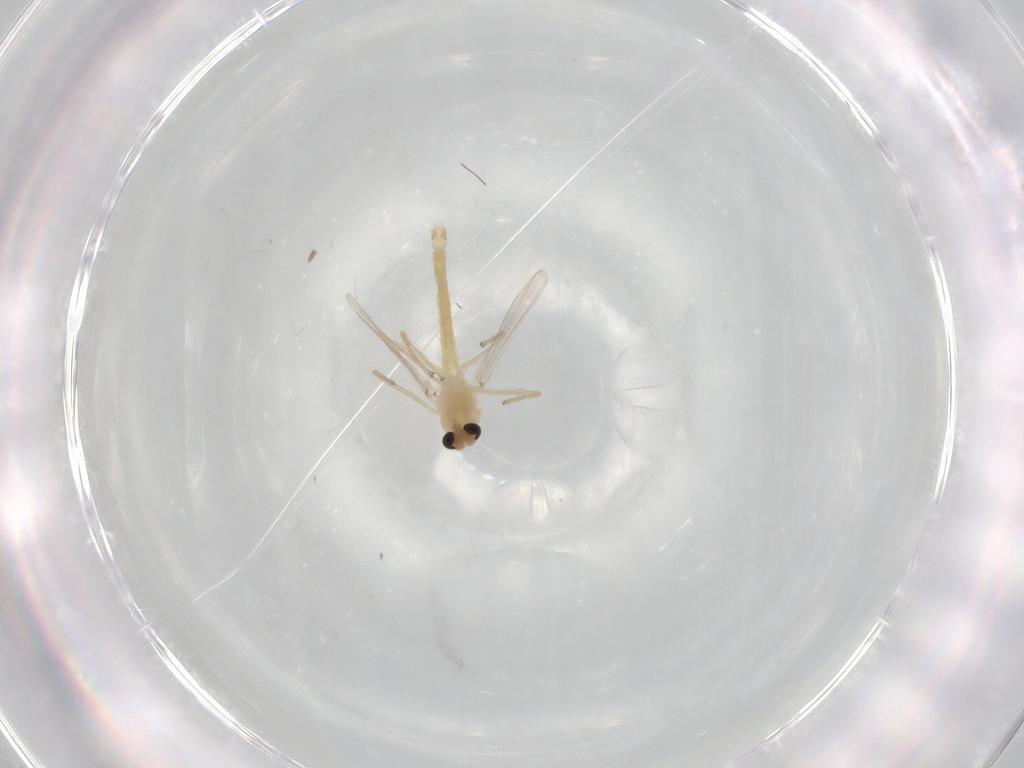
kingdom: Animalia
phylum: Arthropoda
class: Insecta
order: Diptera
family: Chironomidae
